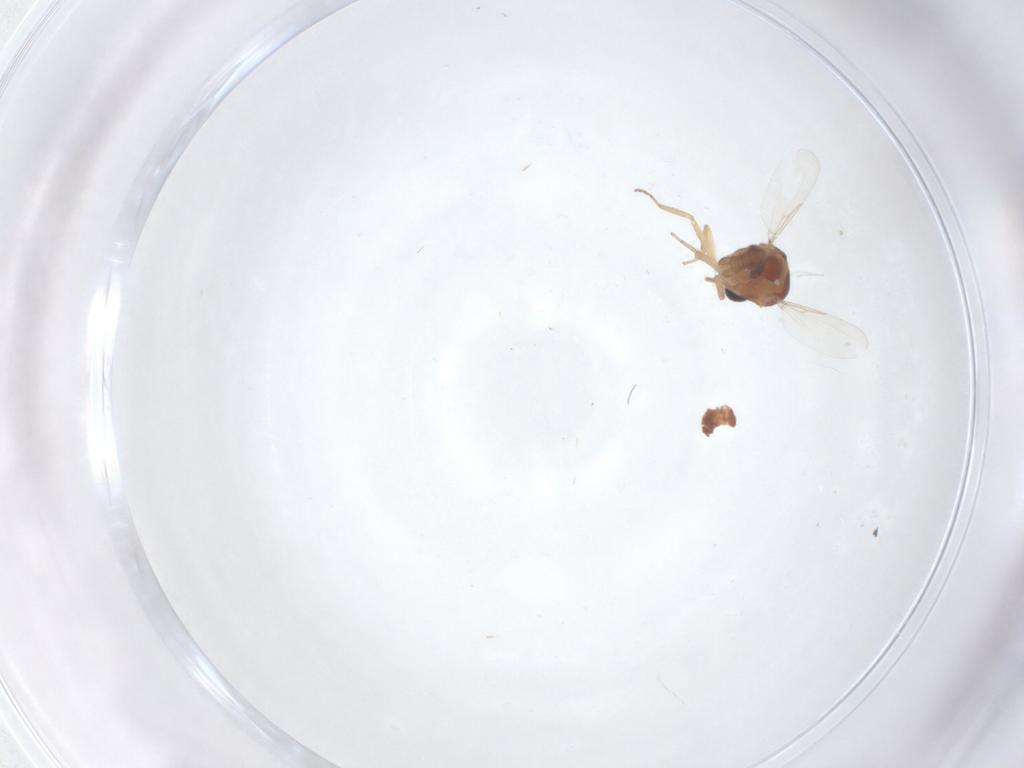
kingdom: Animalia
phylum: Arthropoda
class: Insecta
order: Diptera
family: Ceratopogonidae
